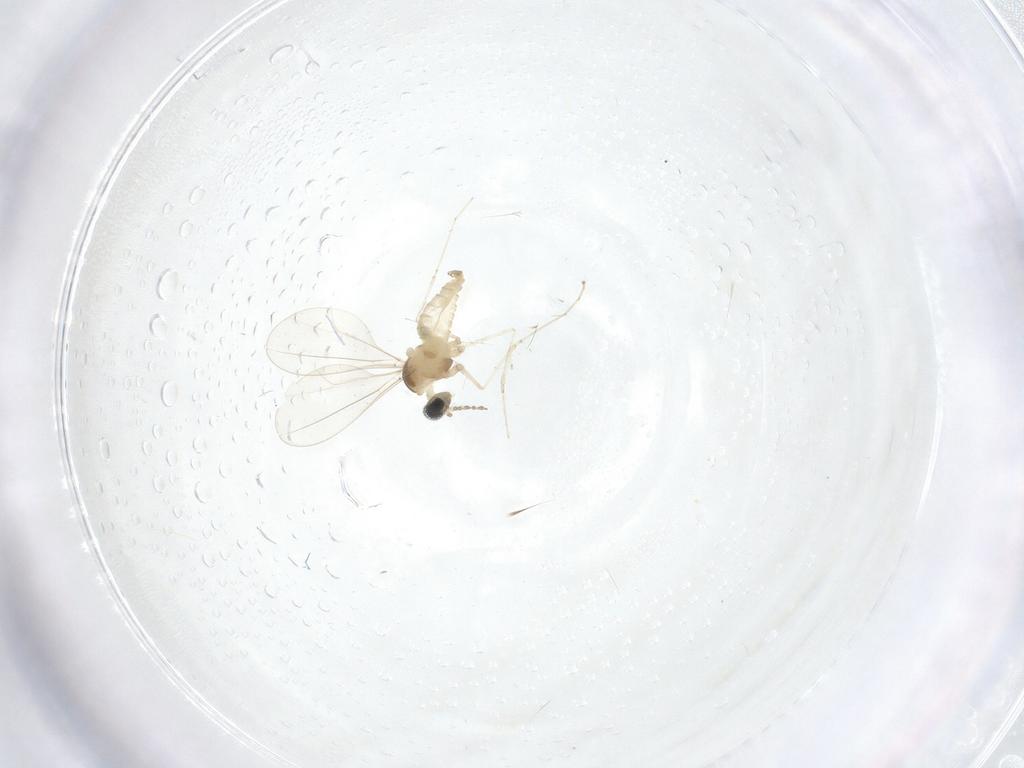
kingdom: Animalia
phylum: Arthropoda
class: Insecta
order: Diptera
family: Cecidomyiidae
